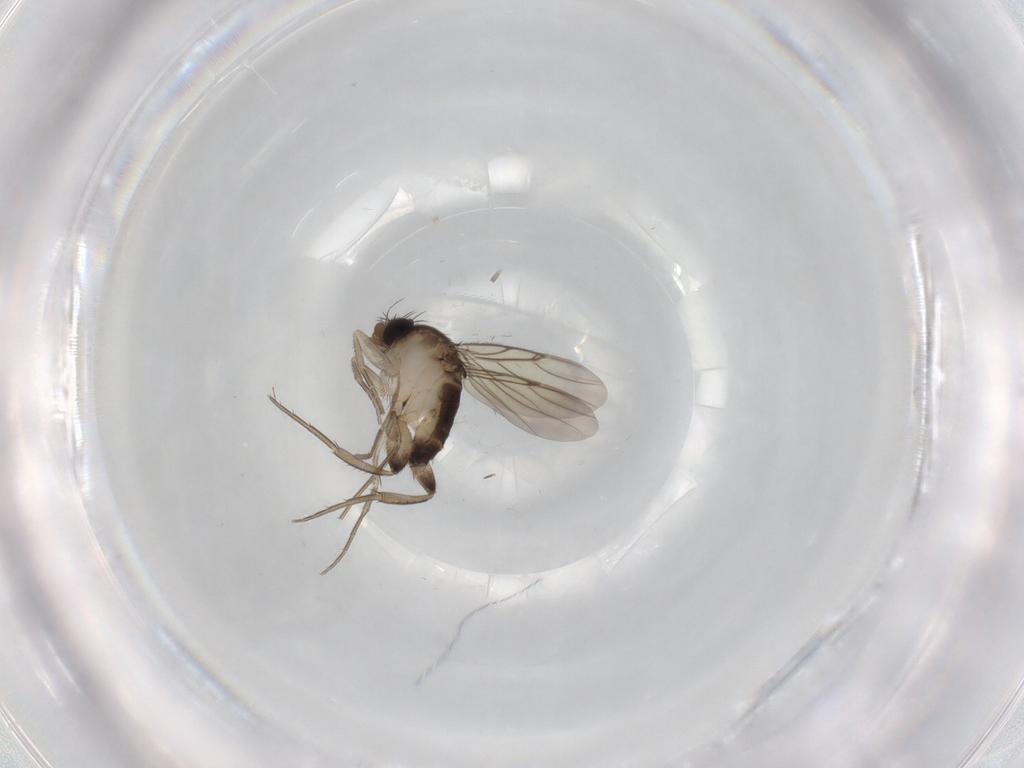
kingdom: Animalia
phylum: Arthropoda
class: Insecta
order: Diptera
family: Phoridae
